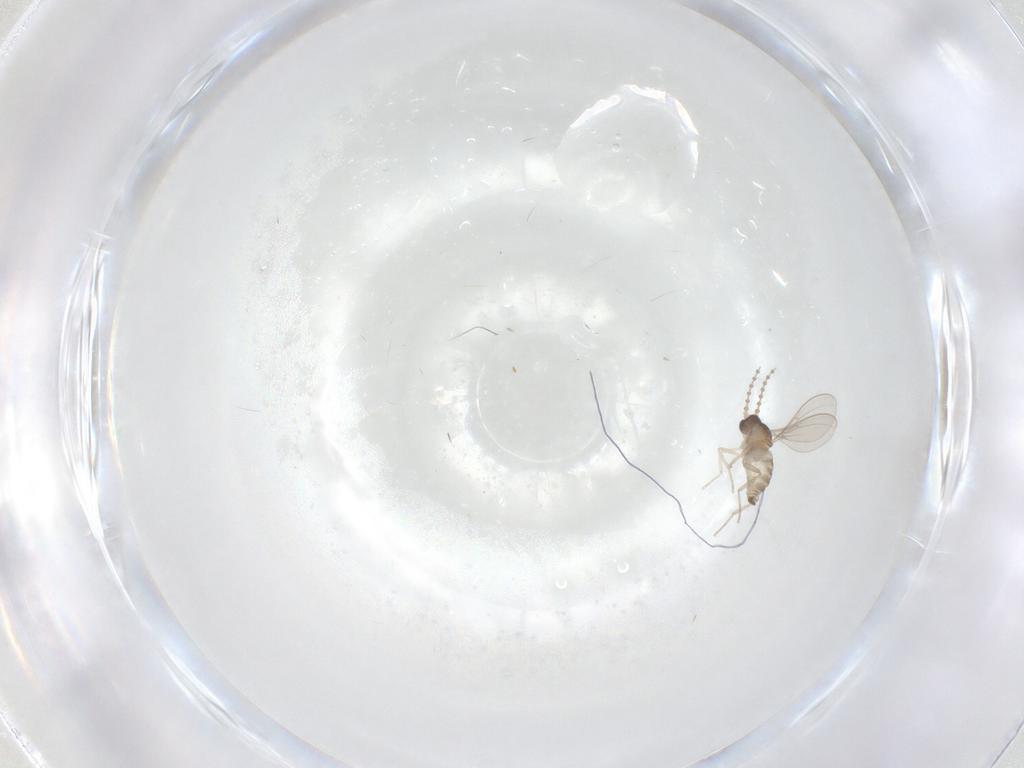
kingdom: Animalia
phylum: Arthropoda
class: Insecta
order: Diptera
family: Cecidomyiidae
